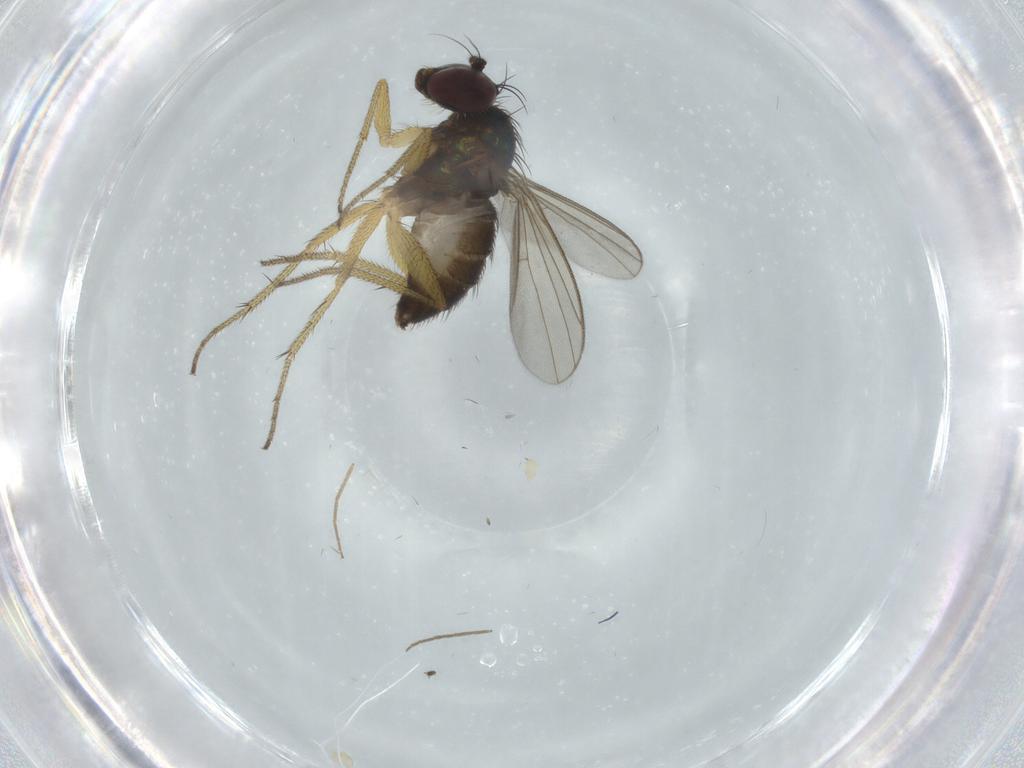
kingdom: Animalia
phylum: Arthropoda
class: Insecta
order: Diptera
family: Dolichopodidae
